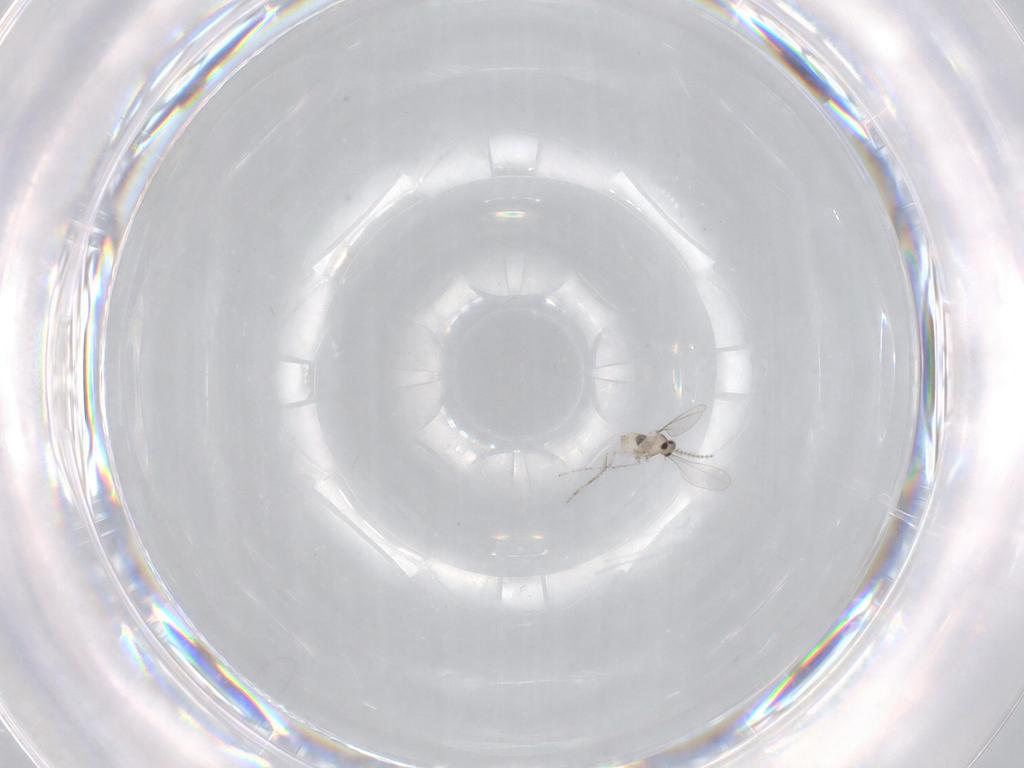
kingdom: Animalia
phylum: Arthropoda
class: Insecta
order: Diptera
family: Cecidomyiidae
